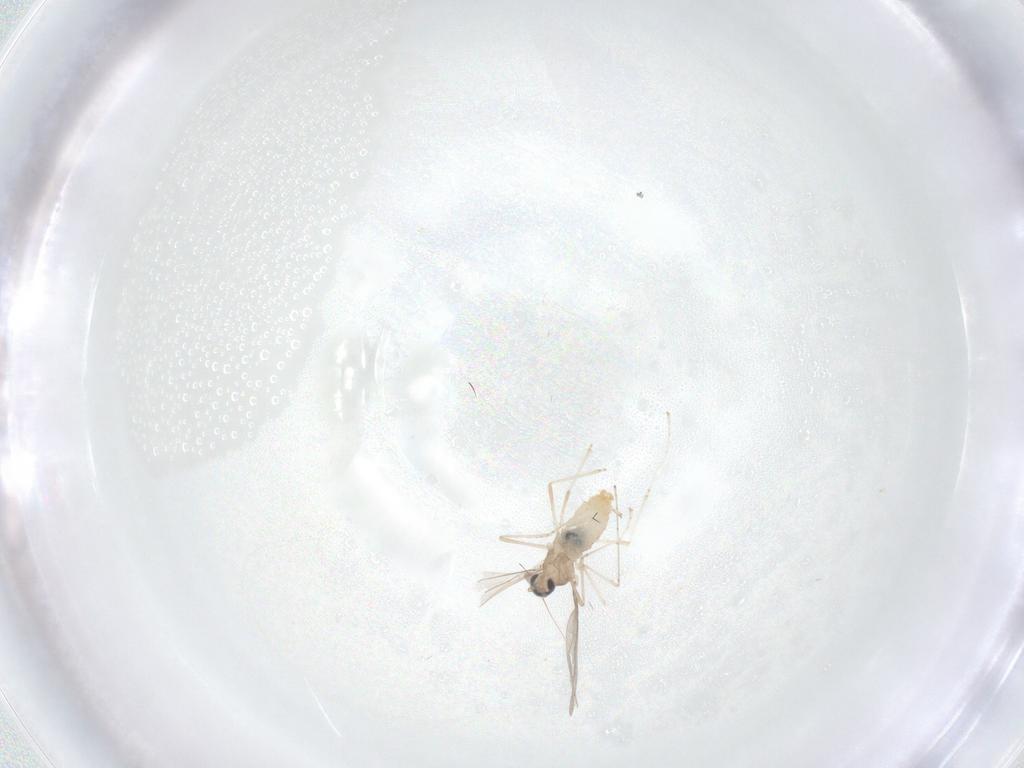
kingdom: Animalia
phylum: Arthropoda
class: Insecta
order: Diptera
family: Cecidomyiidae
